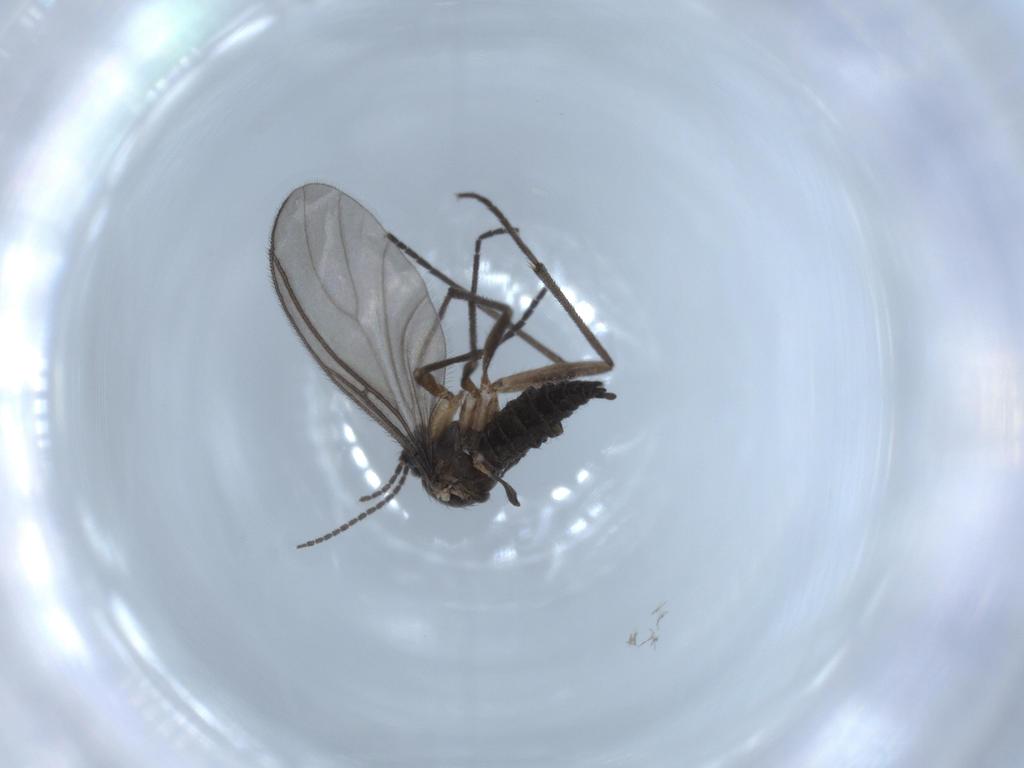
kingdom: Animalia
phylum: Arthropoda
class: Insecta
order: Diptera
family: Sciaridae
